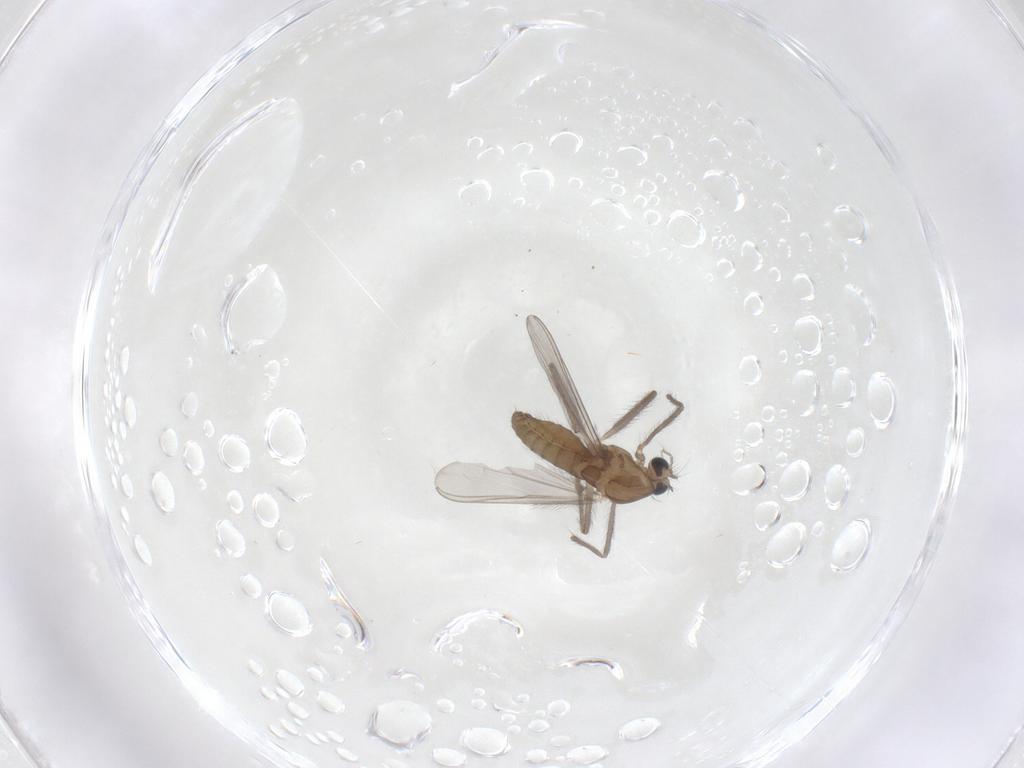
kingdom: Animalia
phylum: Arthropoda
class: Insecta
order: Diptera
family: Chironomidae
